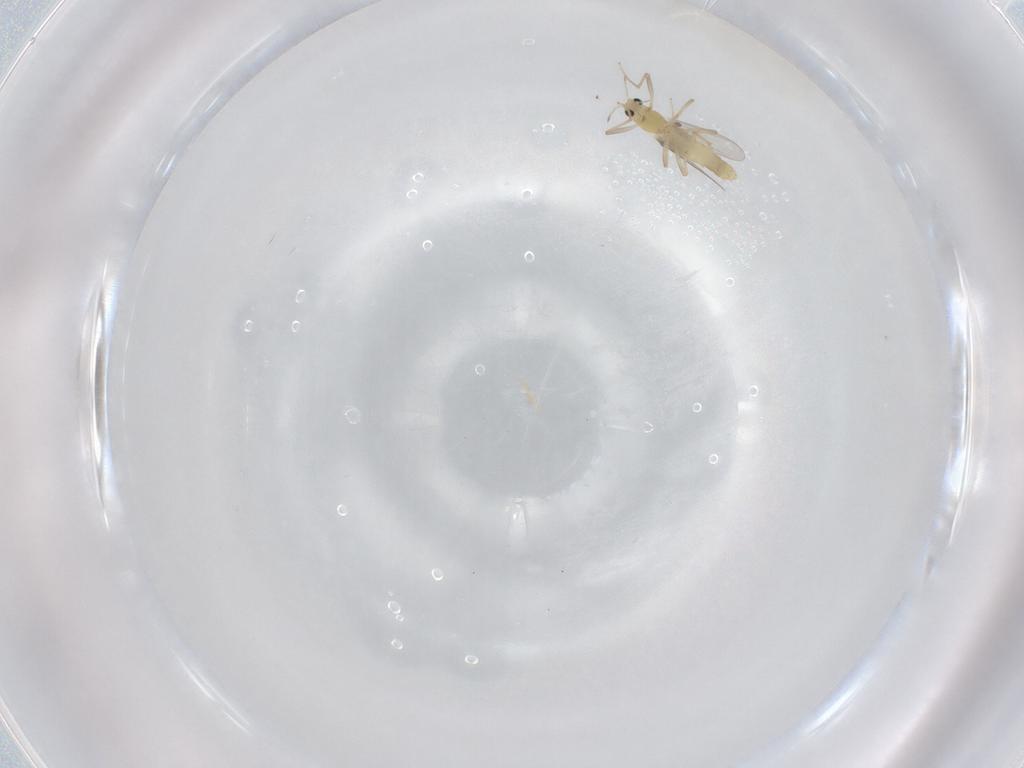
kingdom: Animalia
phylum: Arthropoda
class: Insecta
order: Diptera
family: Chironomidae
